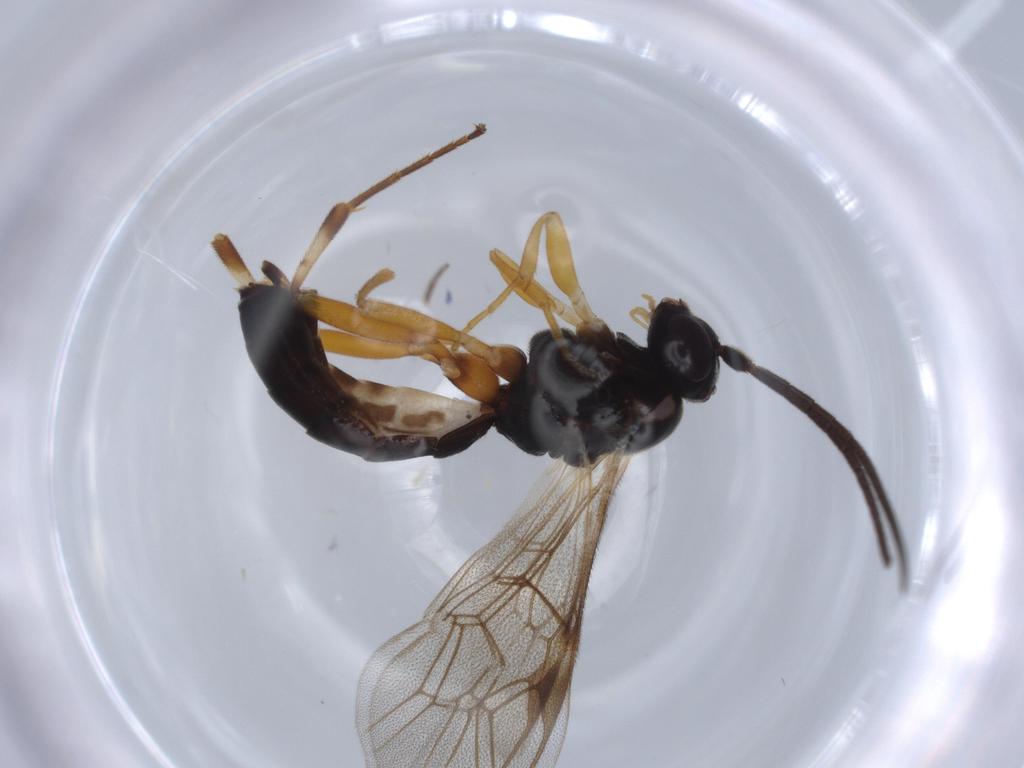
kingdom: Animalia
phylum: Arthropoda
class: Insecta
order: Hymenoptera
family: Ichneumonidae
